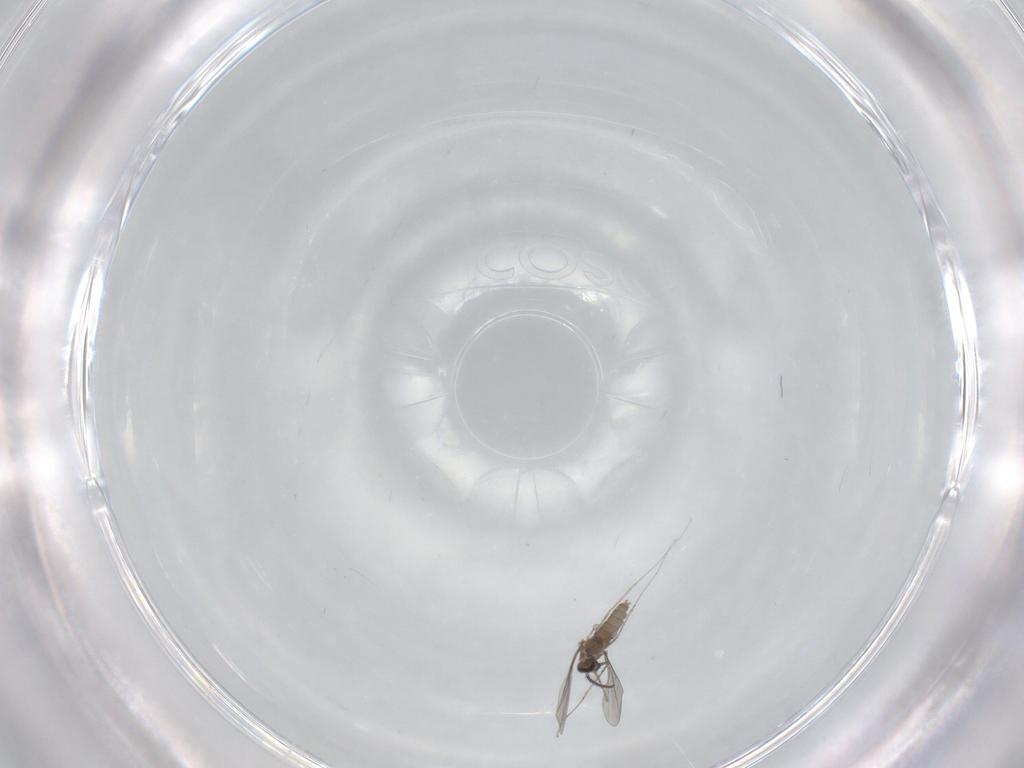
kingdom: Animalia
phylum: Arthropoda
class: Insecta
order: Diptera
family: Cecidomyiidae
